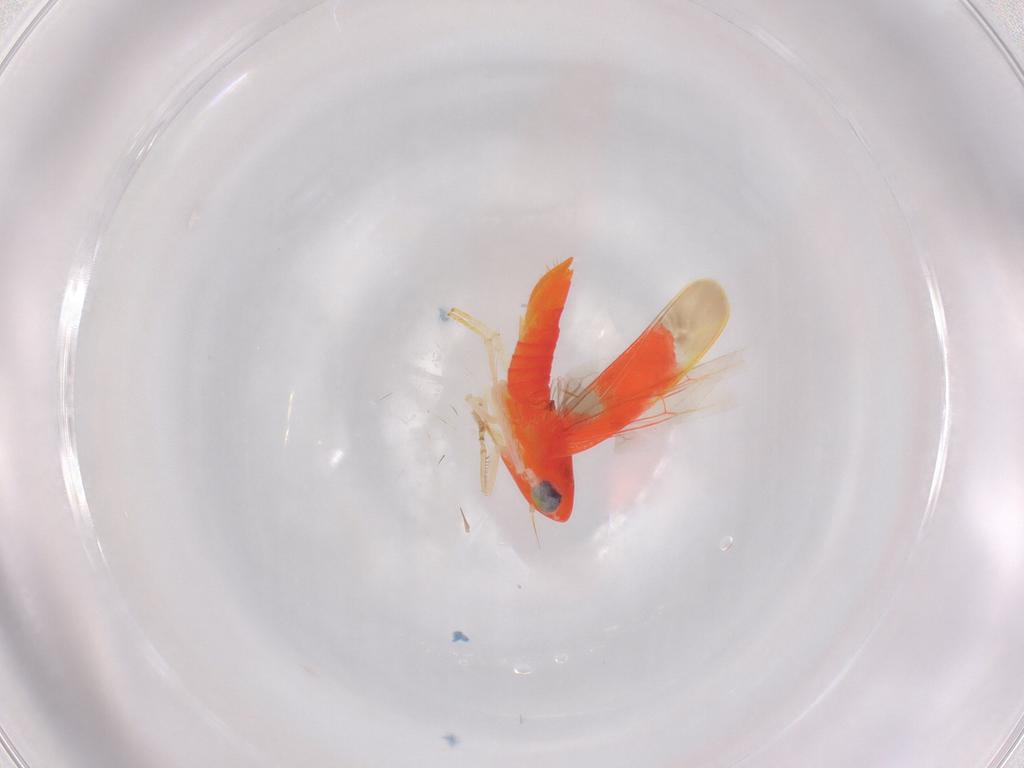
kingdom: Animalia
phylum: Arthropoda
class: Insecta
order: Hemiptera
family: Cicadellidae
